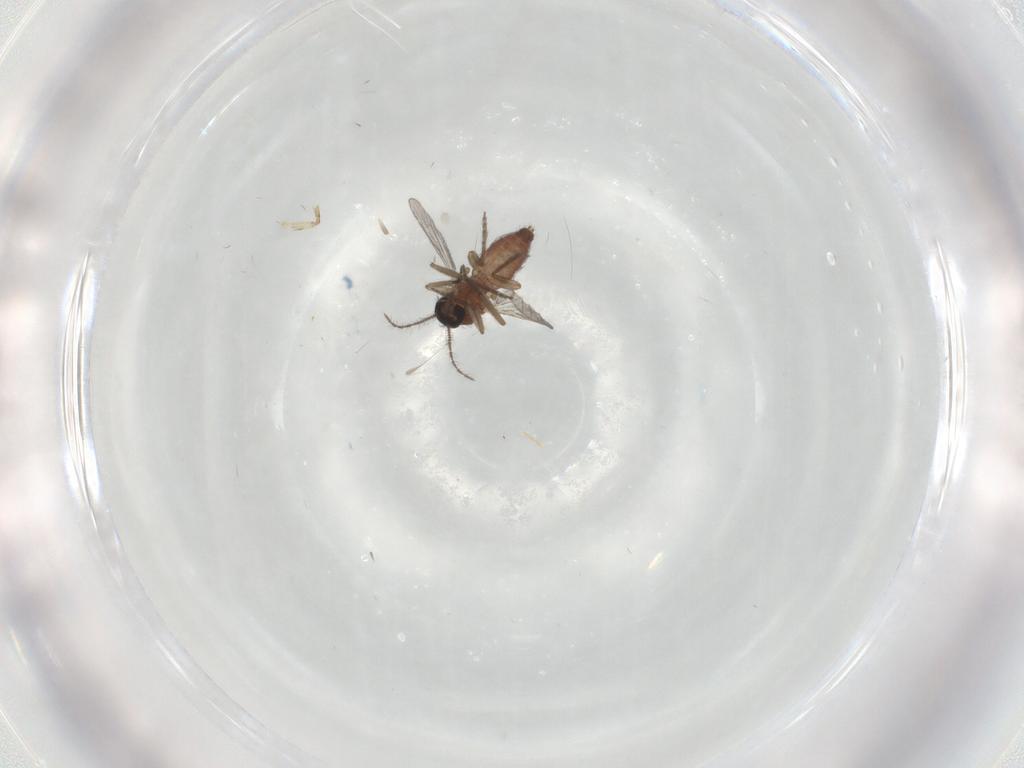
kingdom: Animalia
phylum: Arthropoda
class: Insecta
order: Diptera
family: Ceratopogonidae
